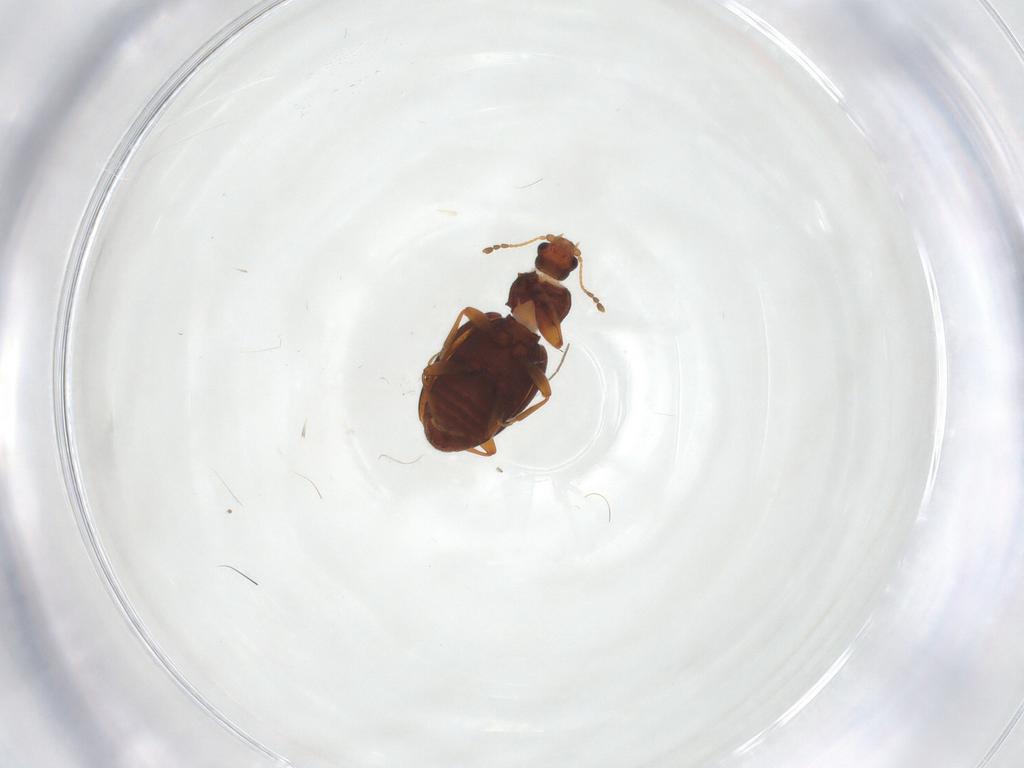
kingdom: Animalia
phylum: Arthropoda
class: Insecta
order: Coleoptera
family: Latridiidae
